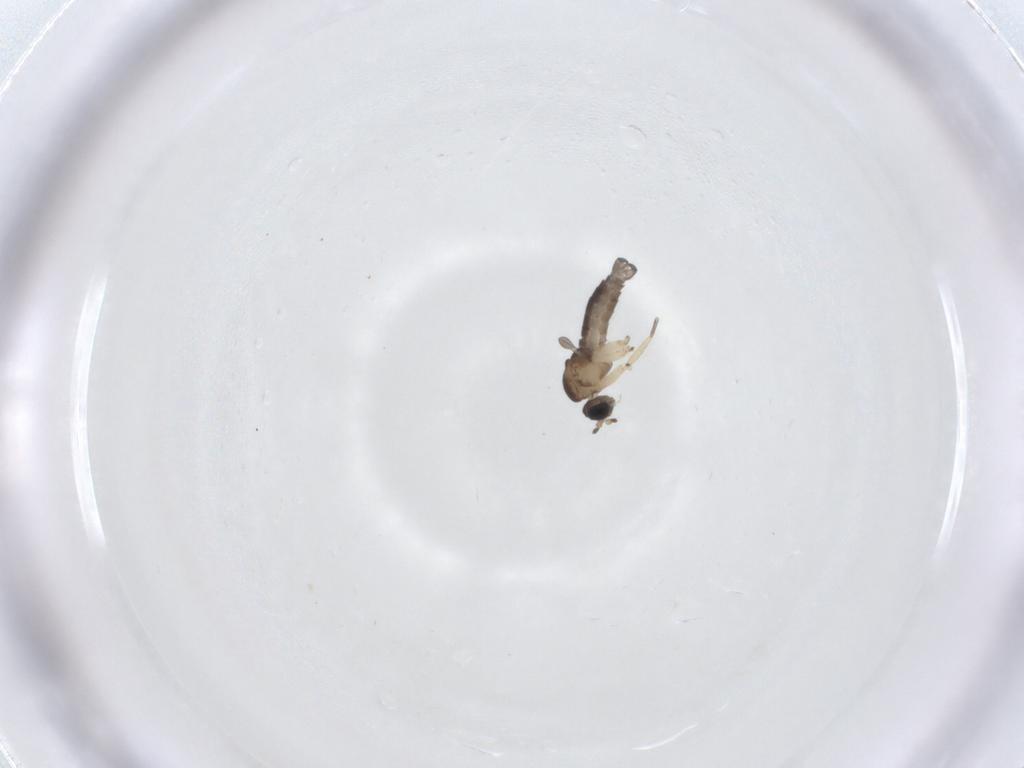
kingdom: Animalia
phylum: Arthropoda
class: Insecta
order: Diptera
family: Sciaridae
